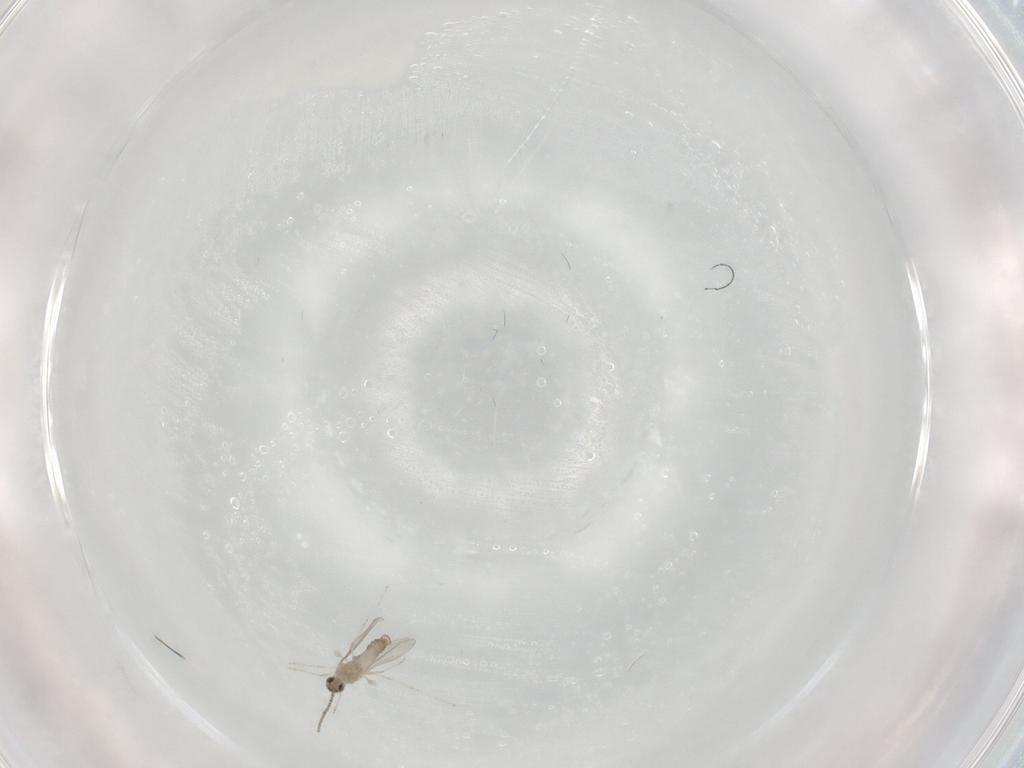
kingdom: Animalia
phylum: Arthropoda
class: Insecta
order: Diptera
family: Cecidomyiidae
